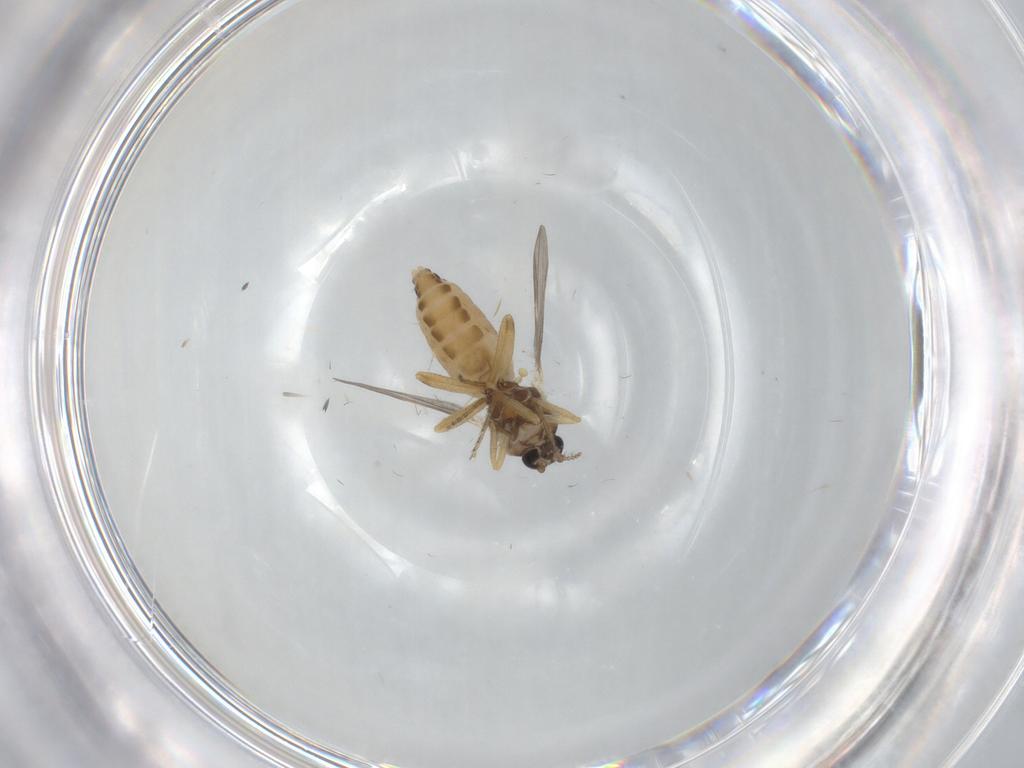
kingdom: Animalia
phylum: Arthropoda
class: Insecta
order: Diptera
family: Ceratopogonidae
